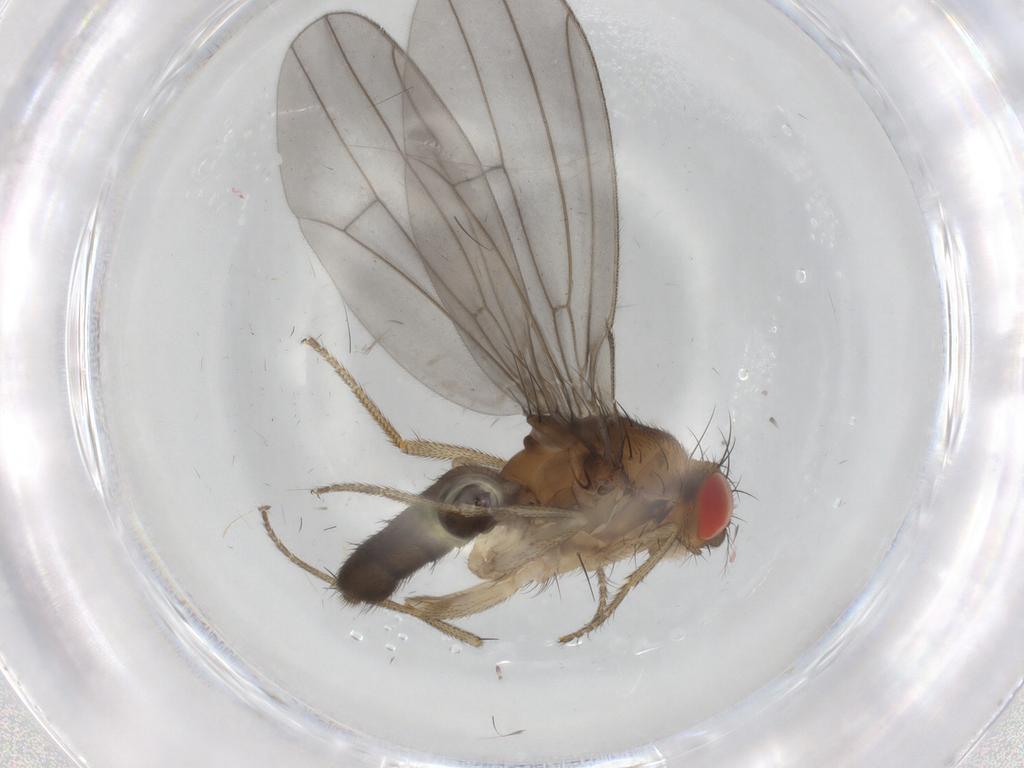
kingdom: Animalia
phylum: Arthropoda
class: Insecta
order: Diptera
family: Drosophilidae
